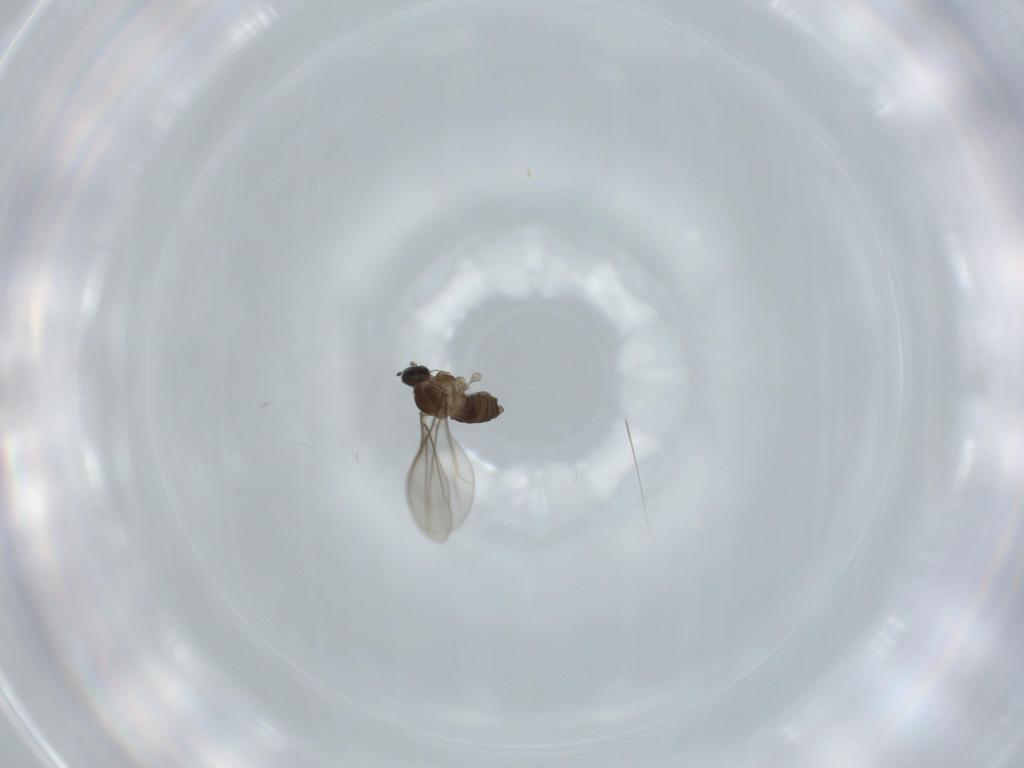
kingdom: Animalia
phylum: Arthropoda
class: Insecta
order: Diptera
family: Cecidomyiidae
